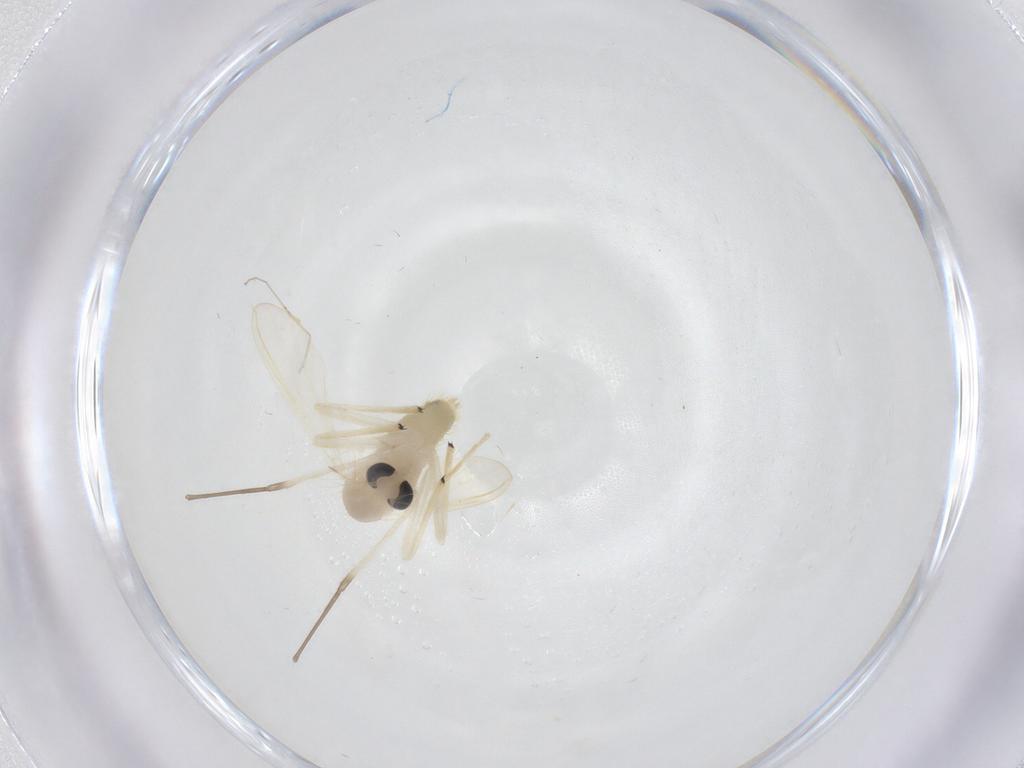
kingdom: Animalia
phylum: Arthropoda
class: Insecta
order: Diptera
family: Chironomidae
